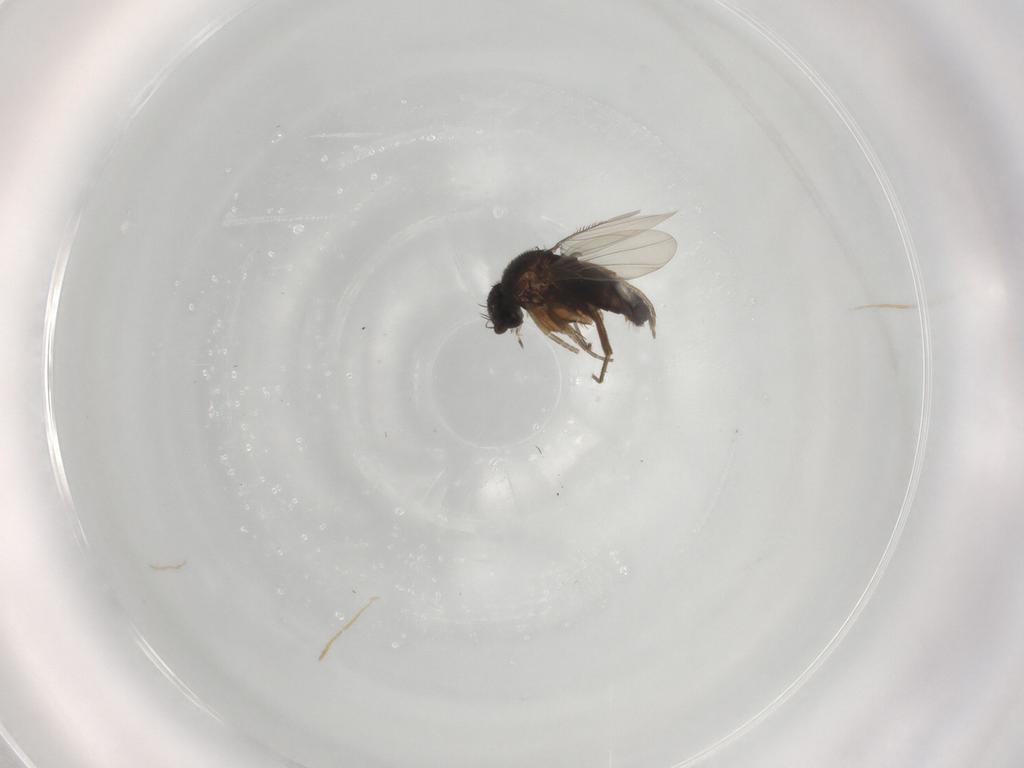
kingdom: Animalia
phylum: Arthropoda
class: Insecta
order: Diptera
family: Phoridae
